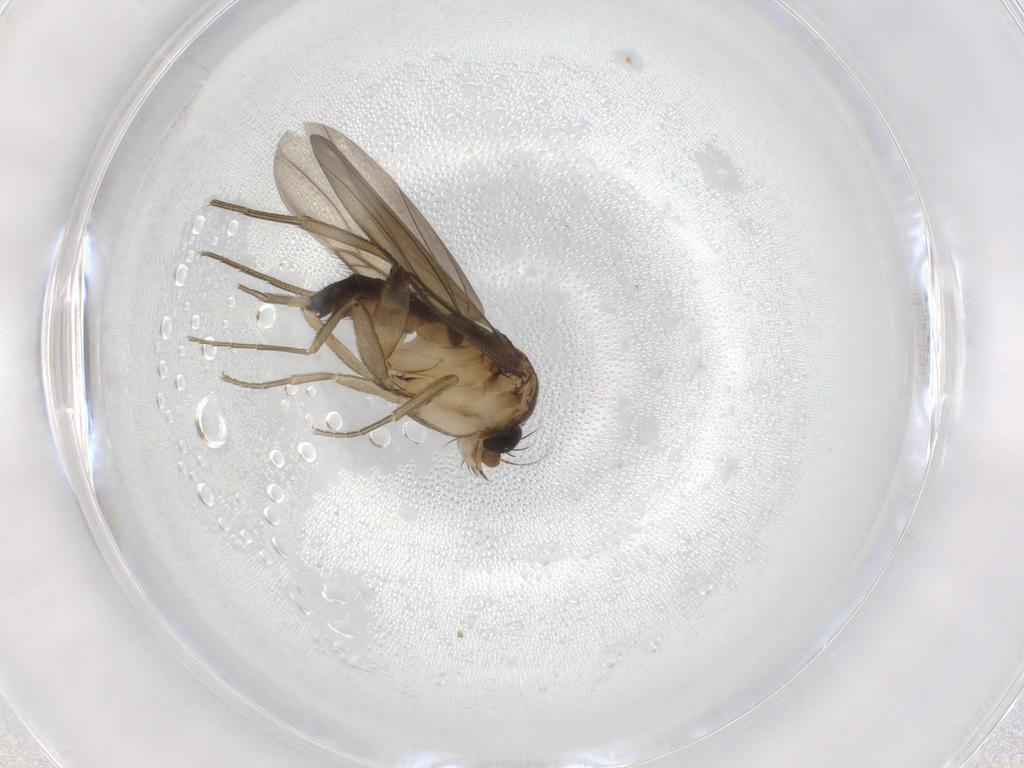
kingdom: Animalia
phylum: Arthropoda
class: Insecta
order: Diptera
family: Phoridae
